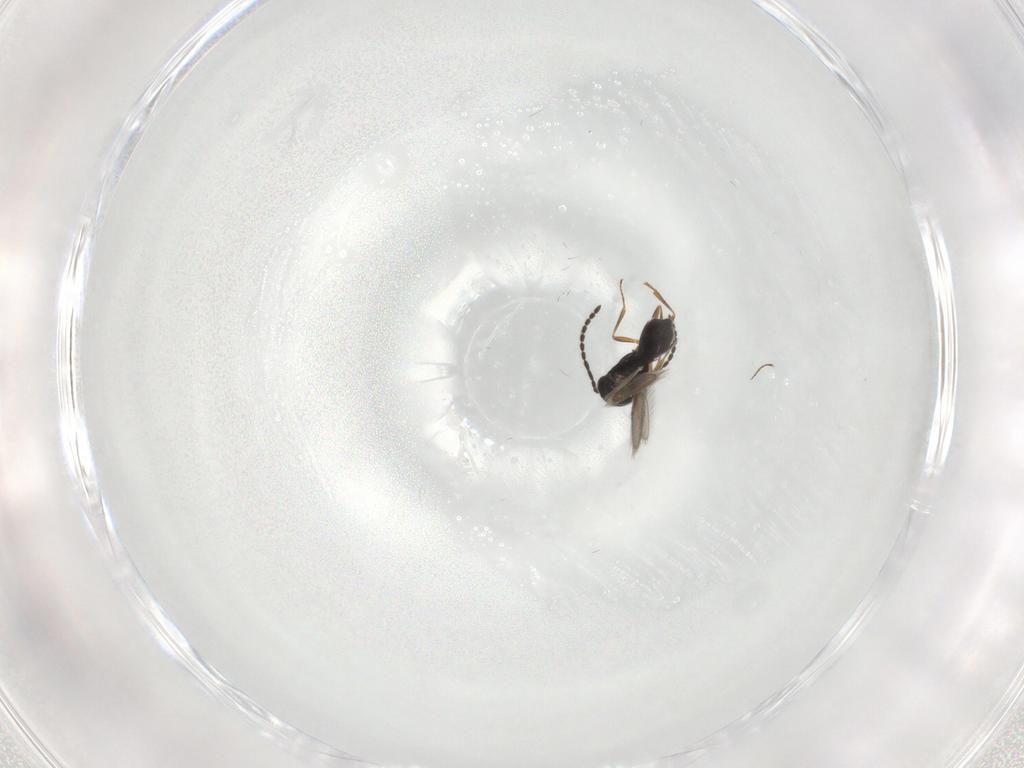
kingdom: Animalia
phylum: Arthropoda
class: Insecta
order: Hymenoptera
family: Scelionidae
